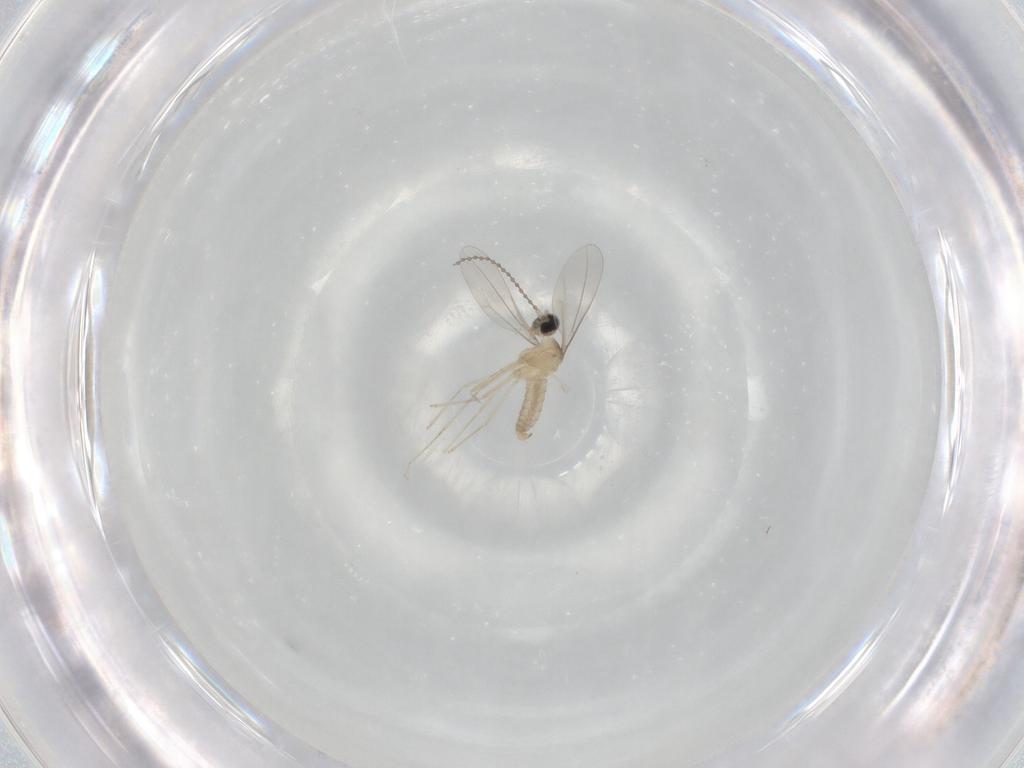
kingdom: Animalia
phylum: Arthropoda
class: Insecta
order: Diptera
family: Cecidomyiidae
